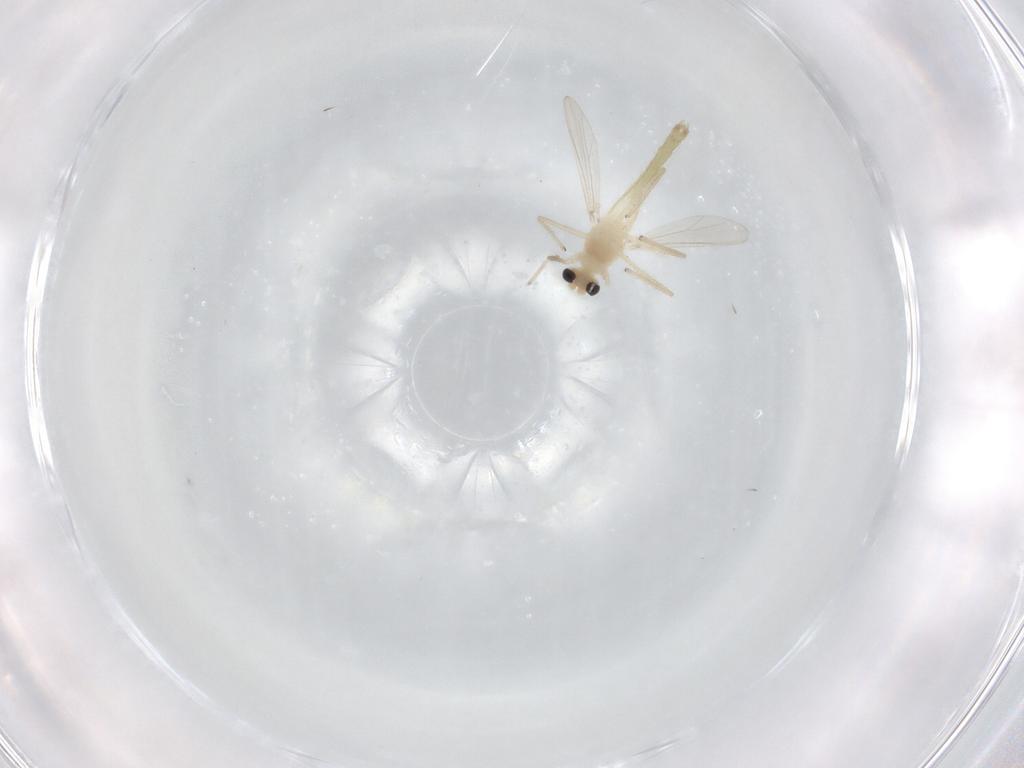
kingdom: Animalia
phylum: Arthropoda
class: Insecta
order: Diptera
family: Chironomidae
